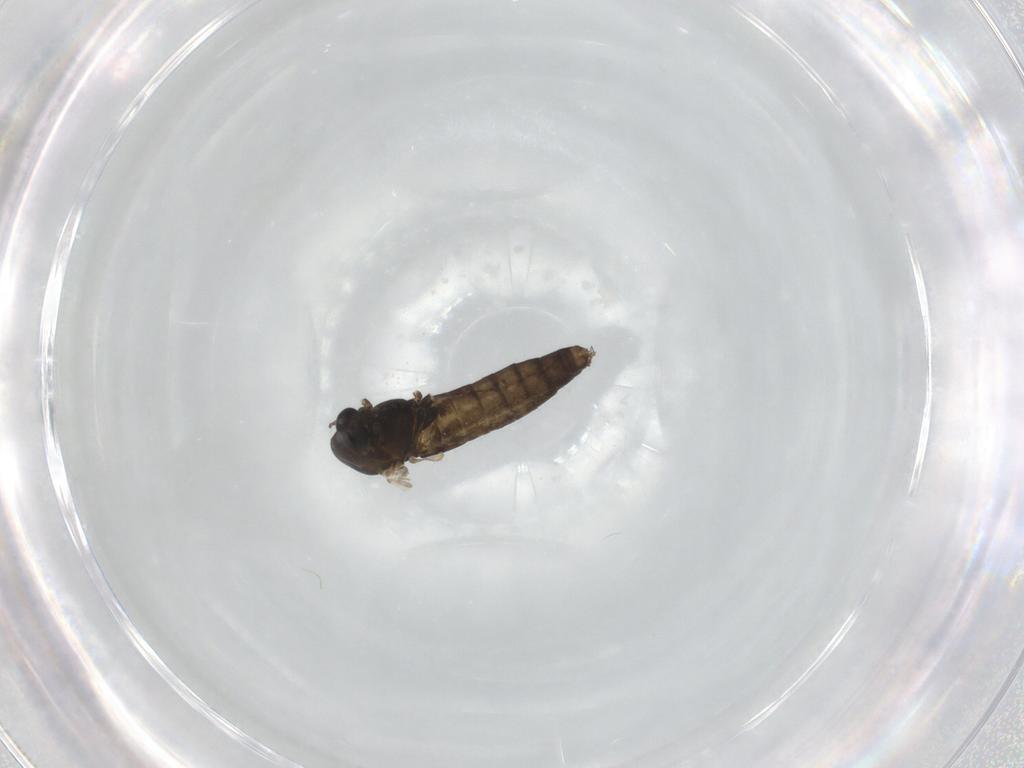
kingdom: Animalia
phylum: Arthropoda
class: Insecta
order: Diptera
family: Chironomidae
